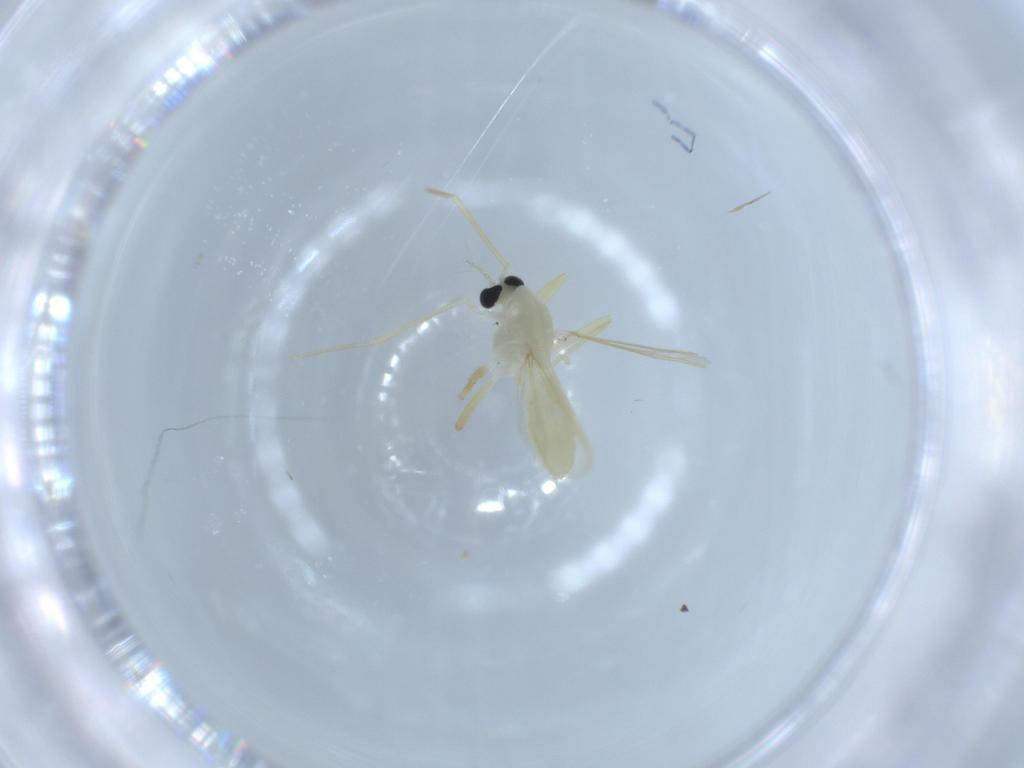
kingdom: Animalia
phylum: Arthropoda
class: Insecta
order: Diptera
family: Chironomidae
